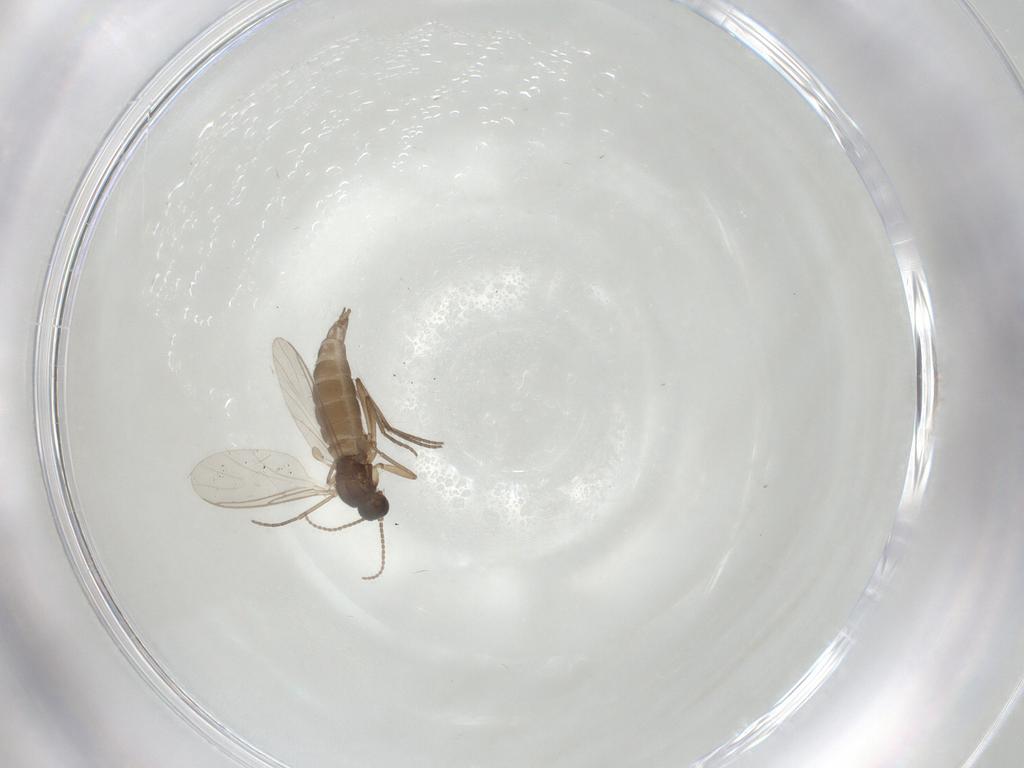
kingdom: Animalia
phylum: Arthropoda
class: Insecta
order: Diptera
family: Sciaridae
